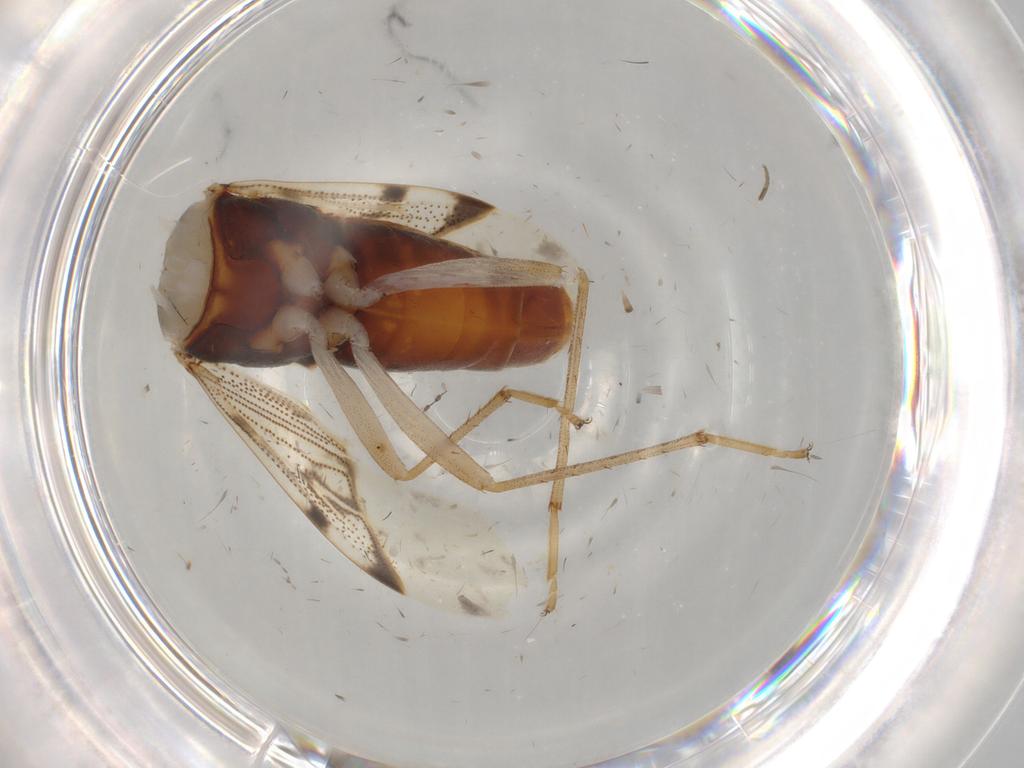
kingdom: Animalia
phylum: Arthropoda
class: Insecta
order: Hemiptera
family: Rhyparochromidae
